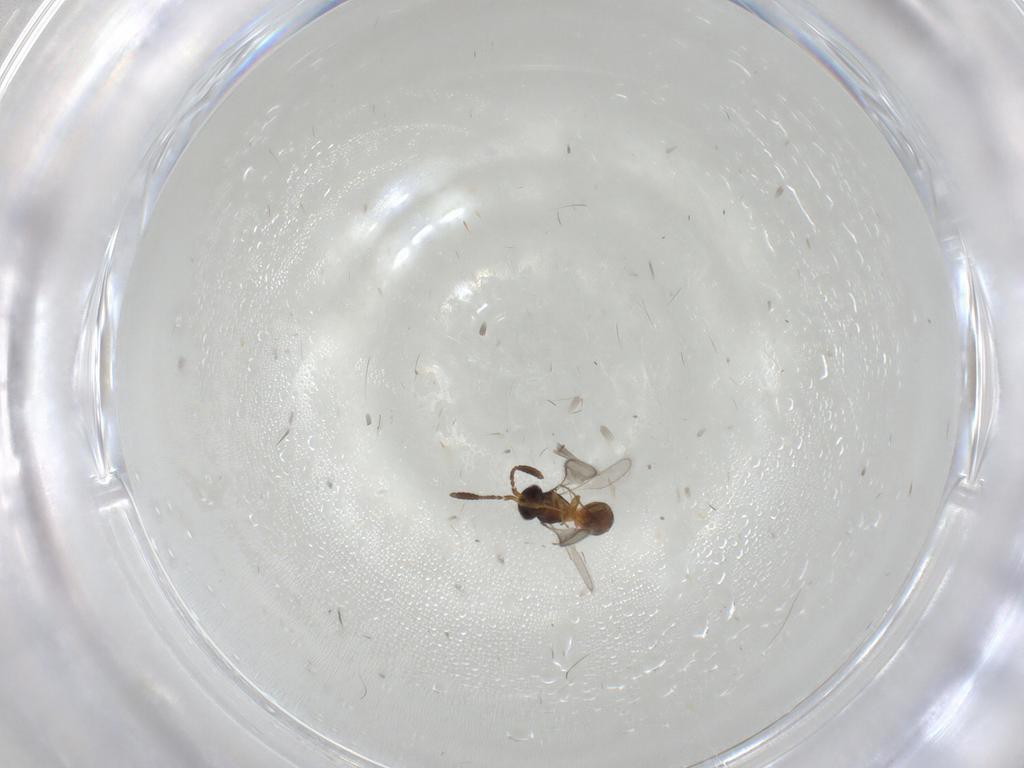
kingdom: Animalia
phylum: Arthropoda
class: Insecta
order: Hymenoptera
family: Scelionidae
